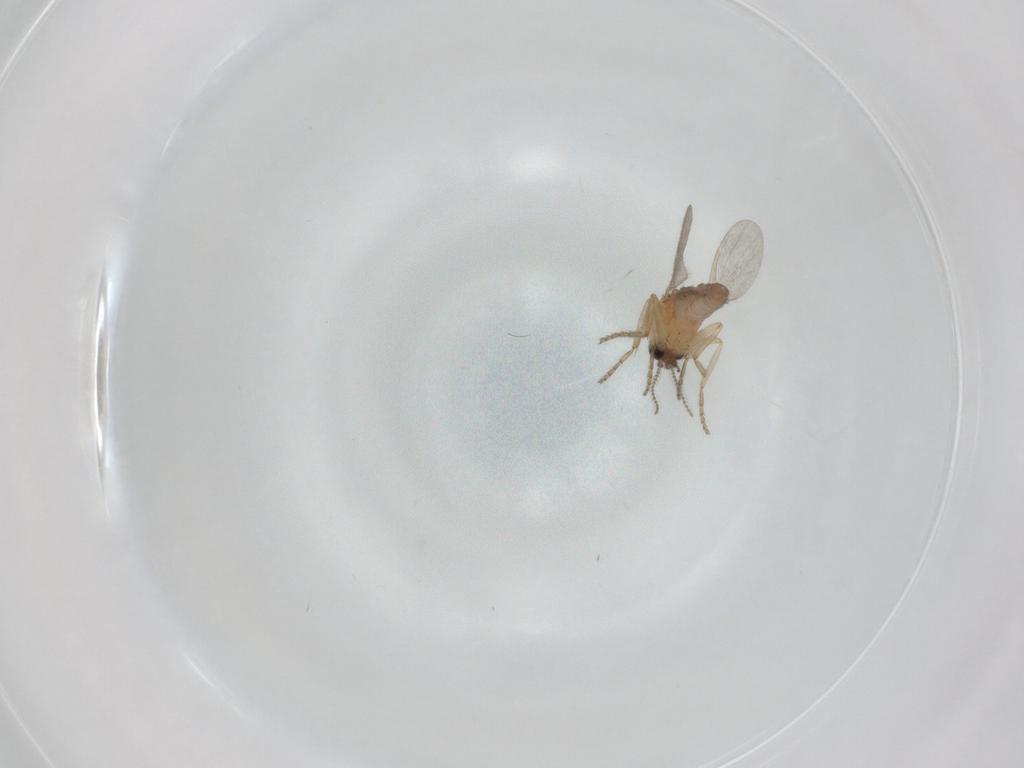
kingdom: Animalia
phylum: Arthropoda
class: Insecta
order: Diptera
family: Ceratopogonidae
